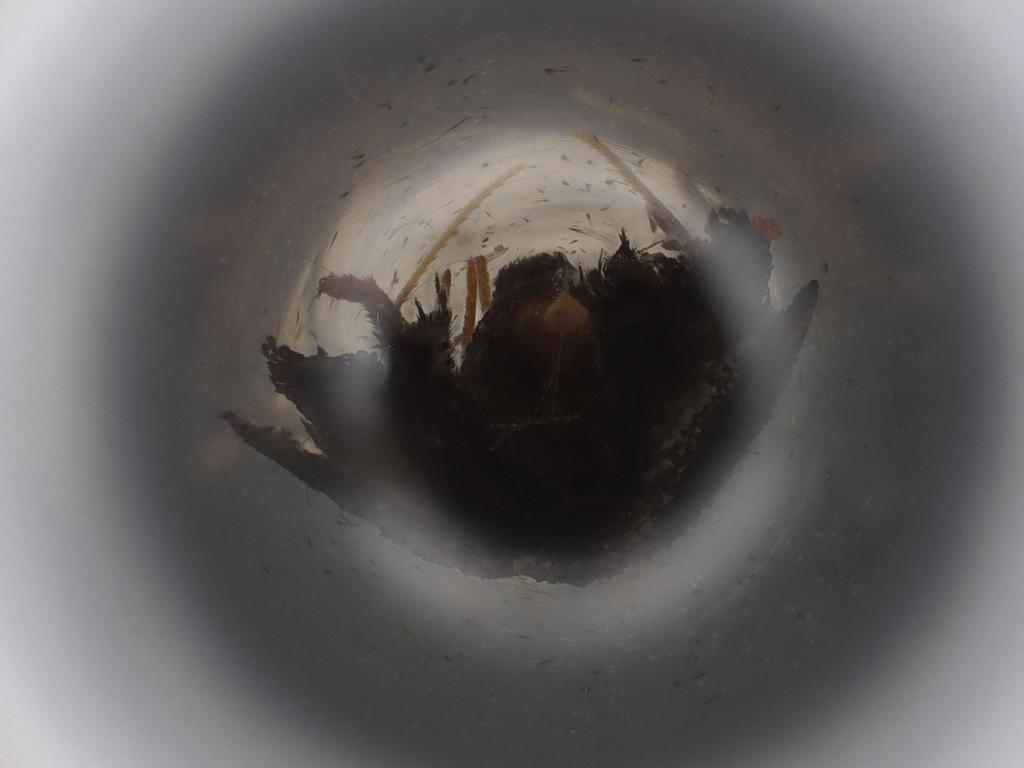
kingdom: Animalia
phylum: Arthropoda
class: Insecta
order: Lepidoptera
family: Lecithoceridae
